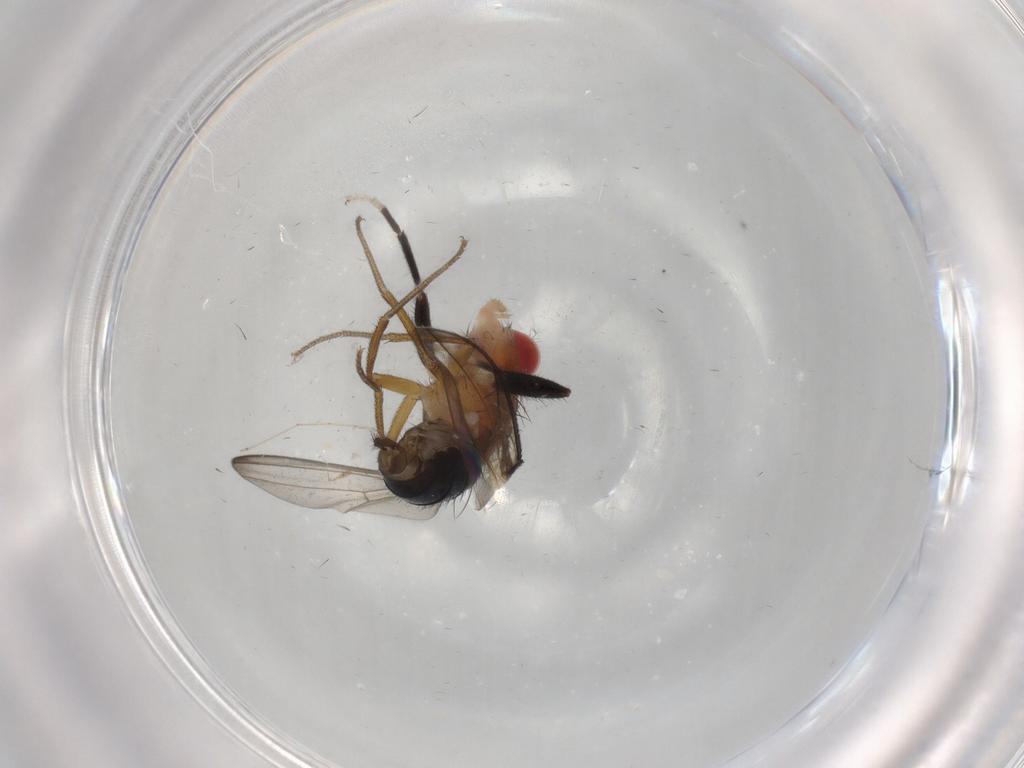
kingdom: Animalia
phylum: Arthropoda
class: Insecta
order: Diptera
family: Drosophilidae
